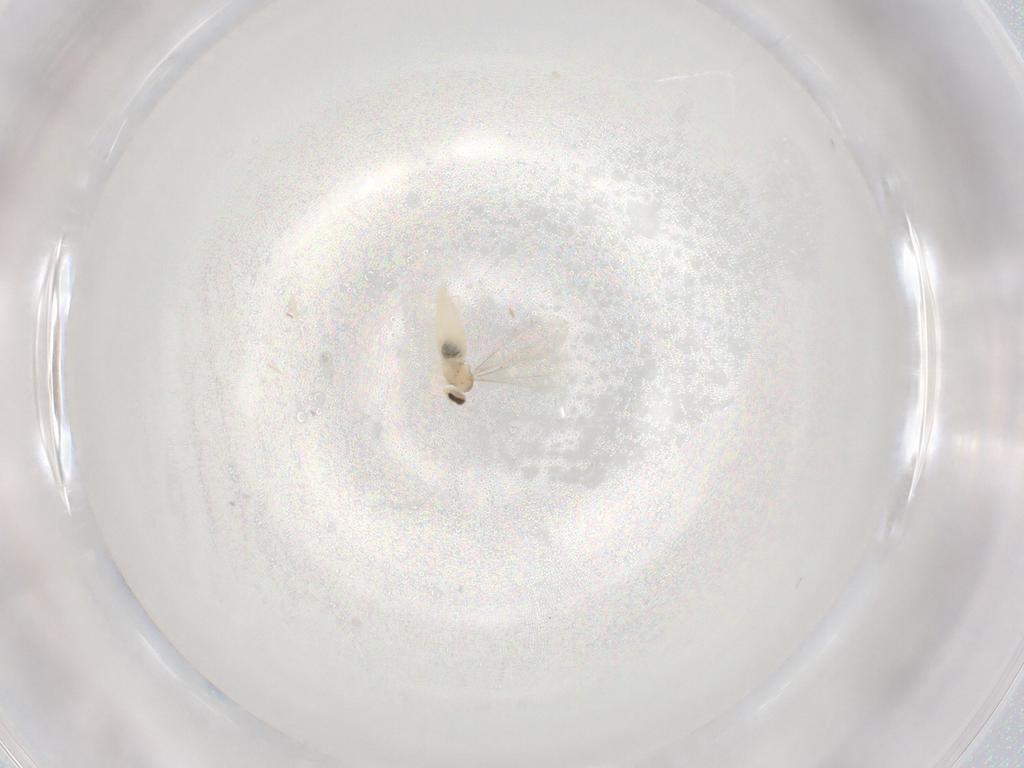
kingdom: Animalia
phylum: Arthropoda
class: Insecta
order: Diptera
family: Cecidomyiidae
